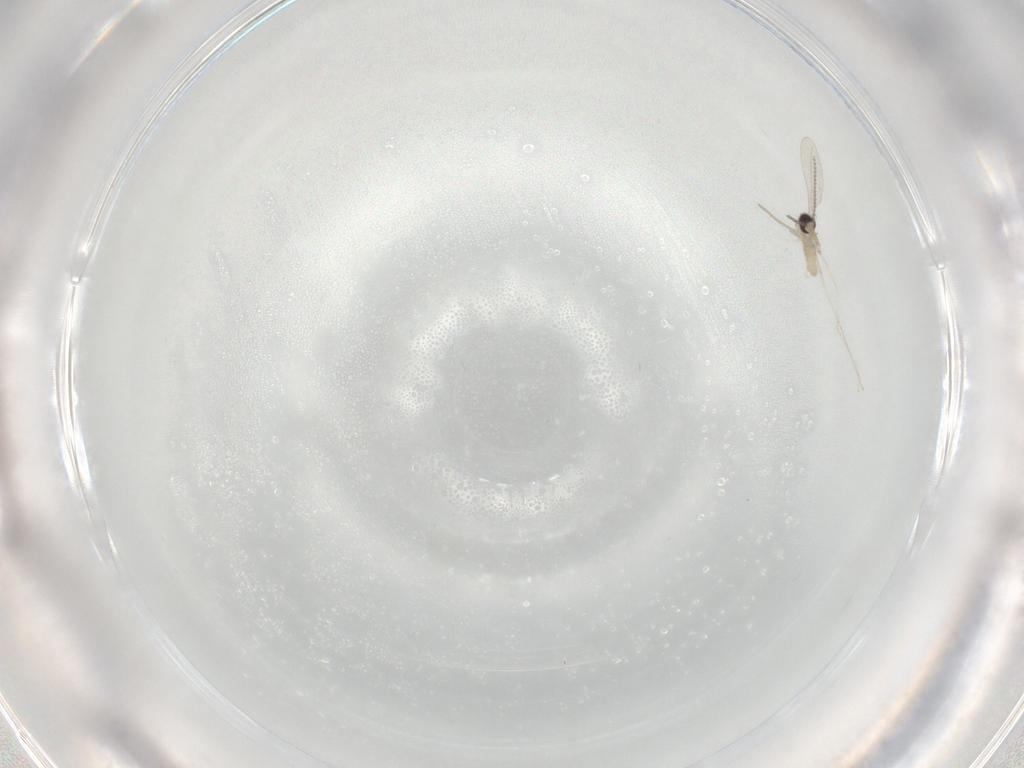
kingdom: Animalia
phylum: Arthropoda
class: Insecta
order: Diptera
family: Cecidomyiidae
